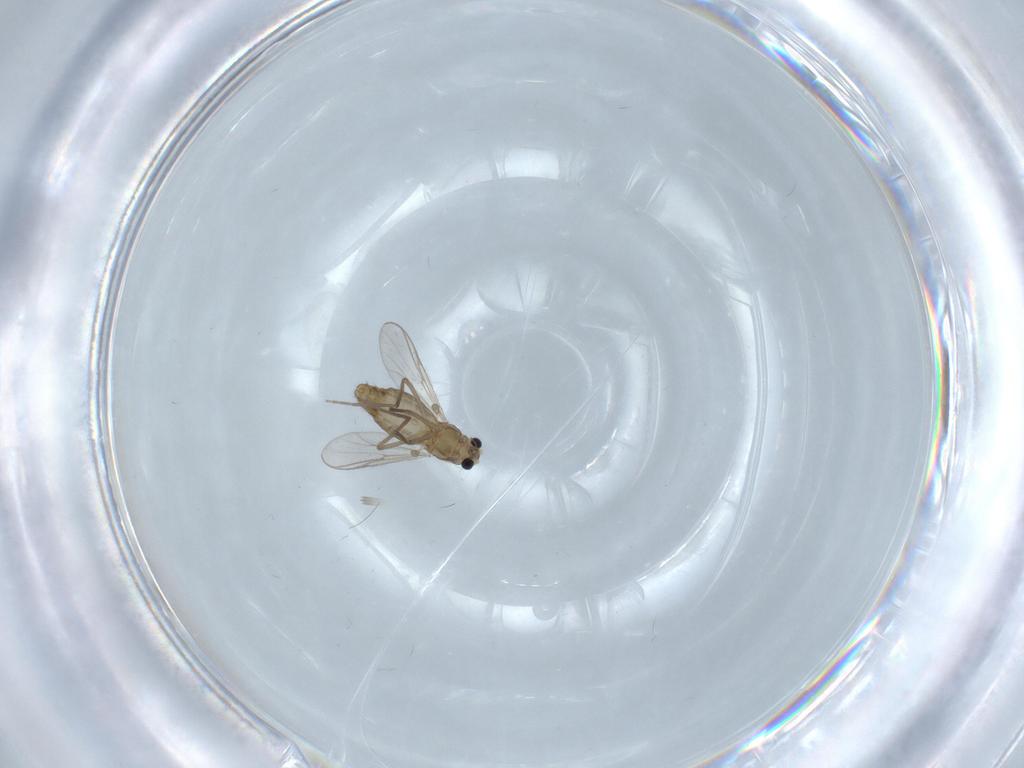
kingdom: Animalia
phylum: Arthropoda
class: Insecta
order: Diptera
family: Chironomidae
